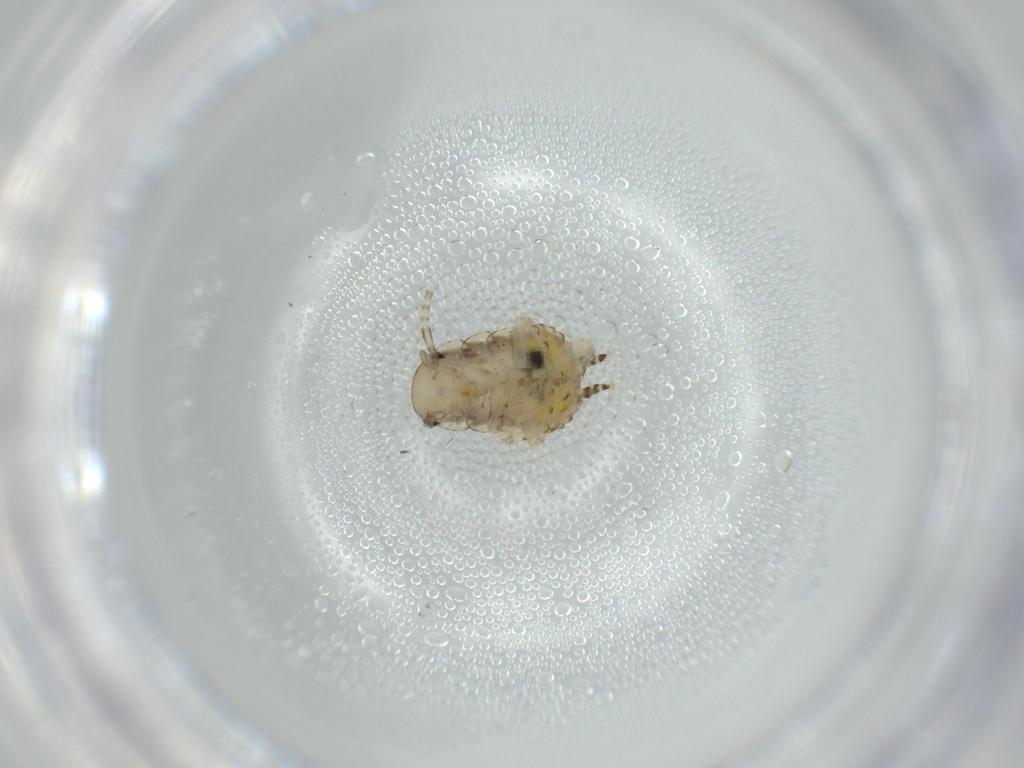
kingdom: Animalia
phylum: Arthropoda
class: Insecta
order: Blattodea
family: Ectobiidae
